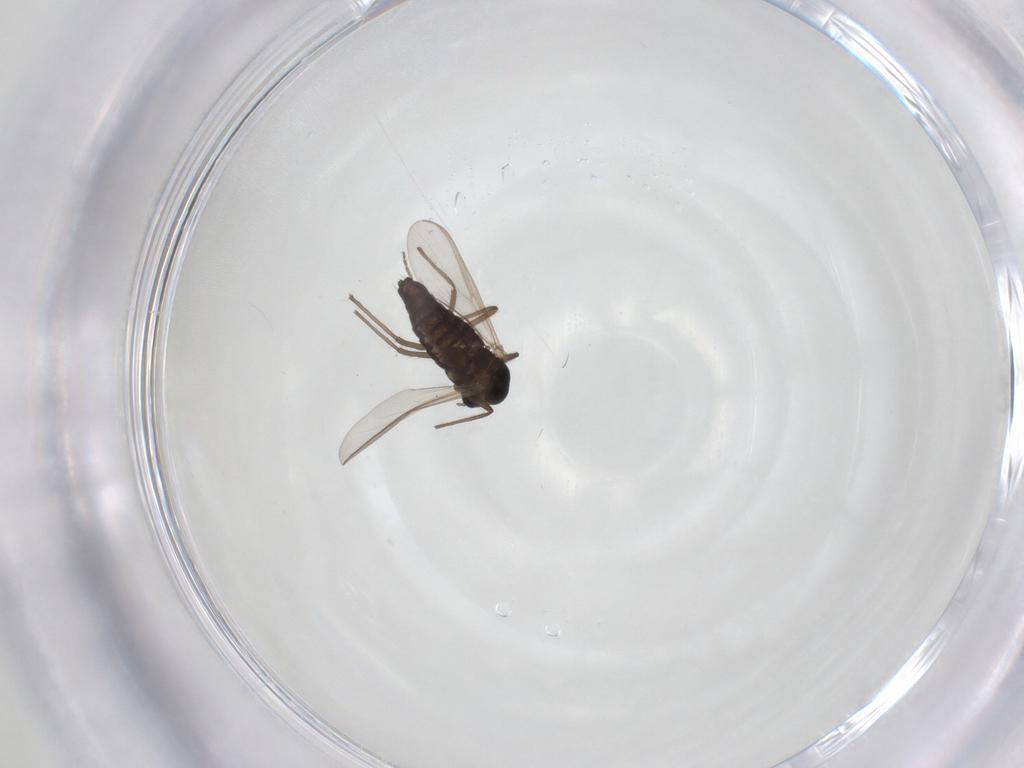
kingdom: Animalia
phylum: Arthropoda
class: Insecta
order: Diptera
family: Chironomidae
